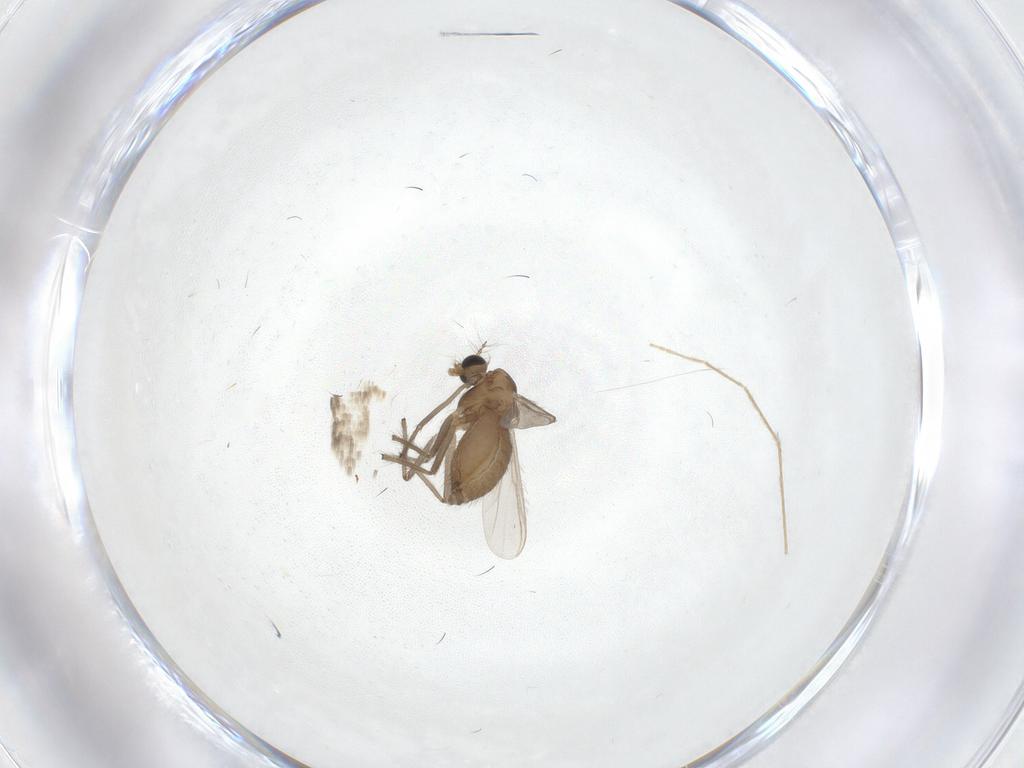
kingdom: Animalia
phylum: Arthropoda
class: Insecta
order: Diptera
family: Chironomidae
